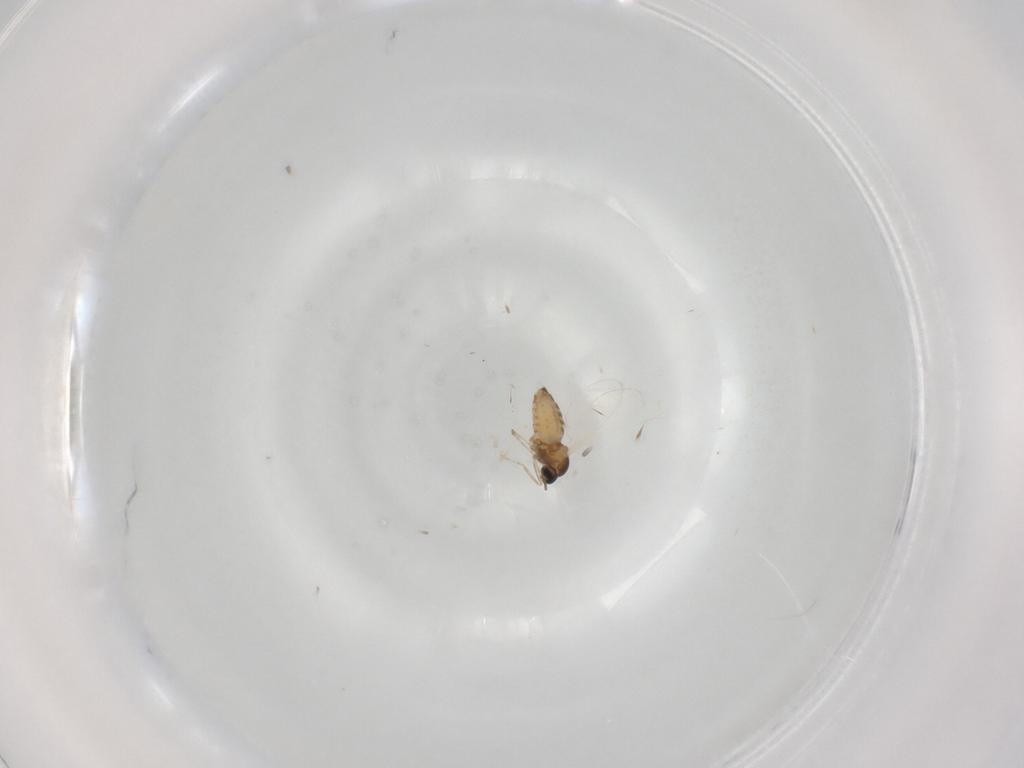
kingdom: Animalia
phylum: Arthropoda
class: Insecta
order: Diptera
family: Cecidomyiidae
